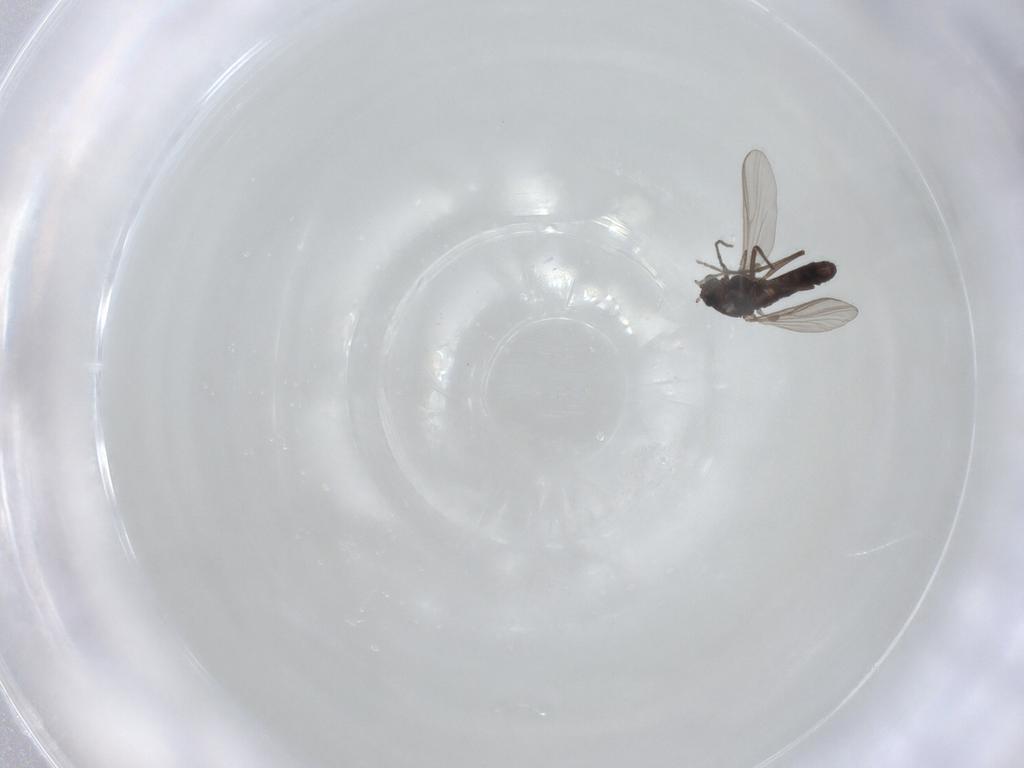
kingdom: Animalia
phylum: Arthropoda
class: Insecta
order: Diptera
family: Chironomidae
